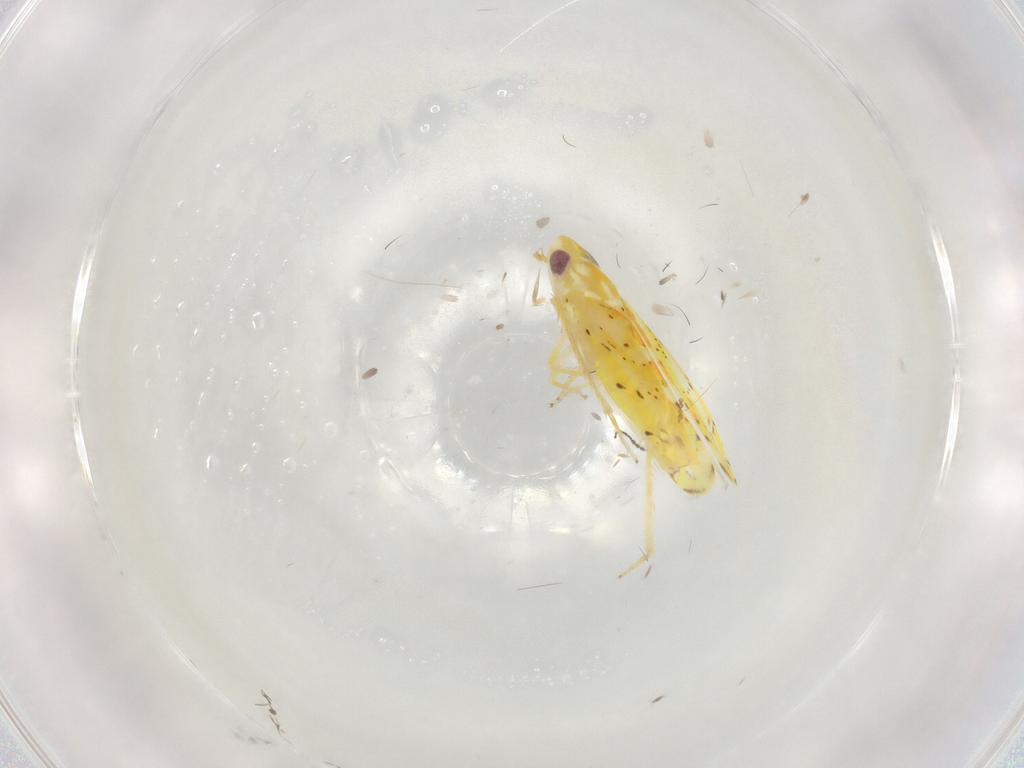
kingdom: Animalia
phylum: Arthropoda
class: Insecta
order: Hemiptera
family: Cicadellidae
